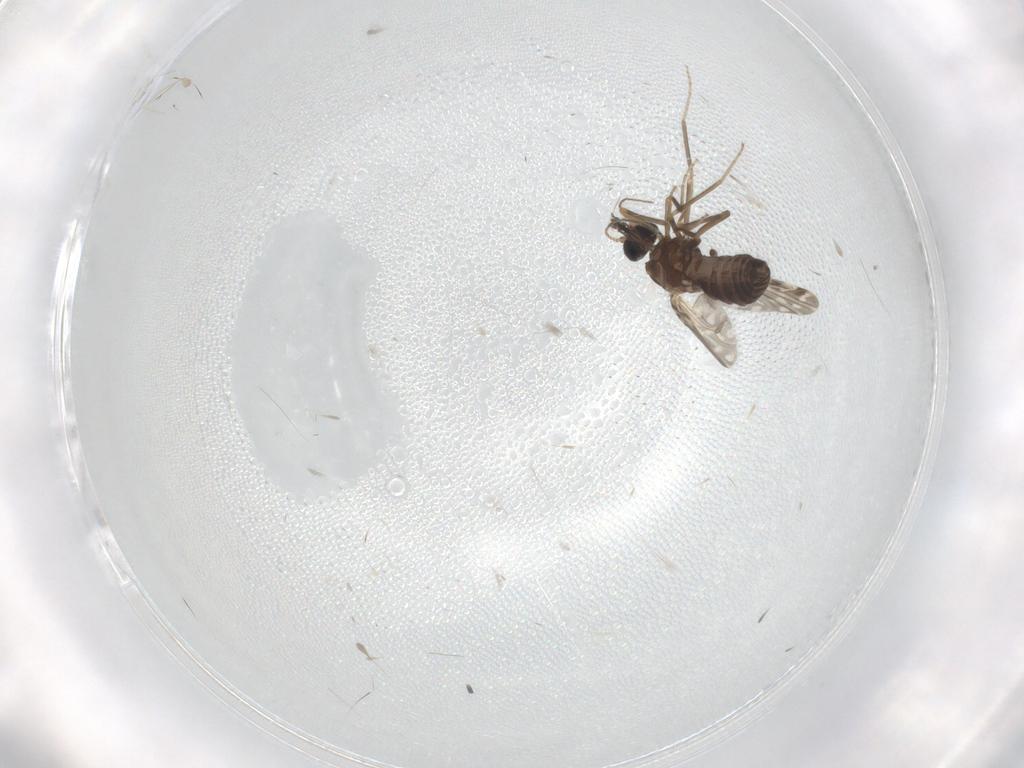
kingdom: Animalia
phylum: Arthropoda
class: Insecta
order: Diptera
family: Ceratopogonidae
